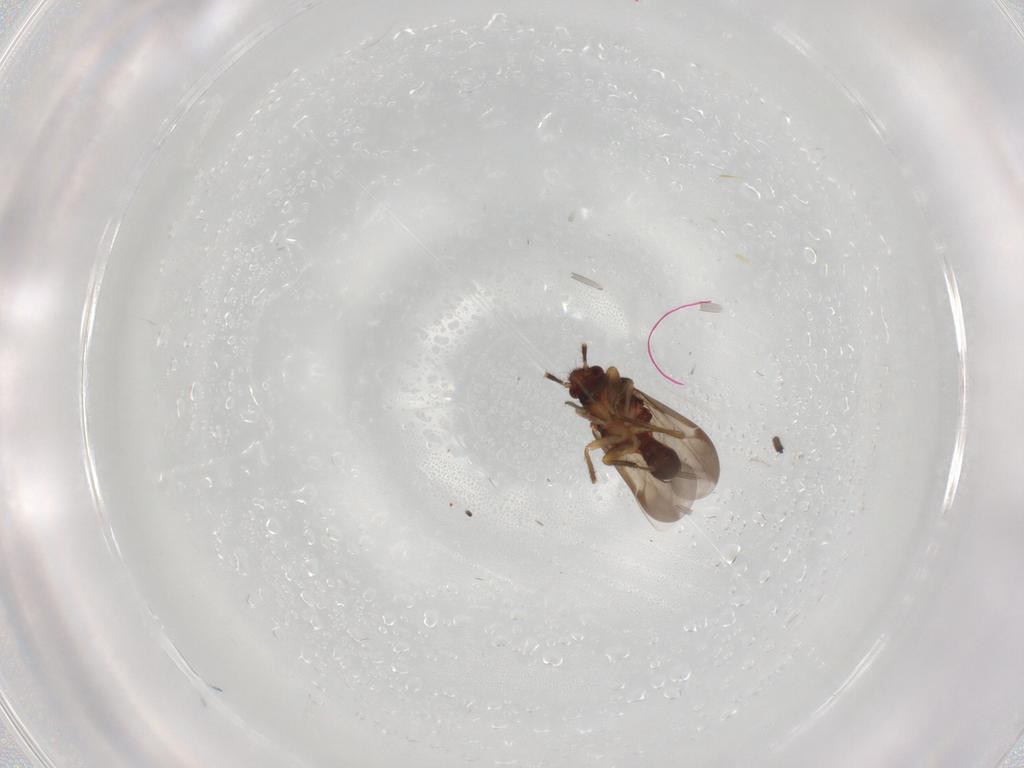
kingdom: Animalia
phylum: Arthropoda
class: Insecta
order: Hemiptera
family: Ceratocombidae
